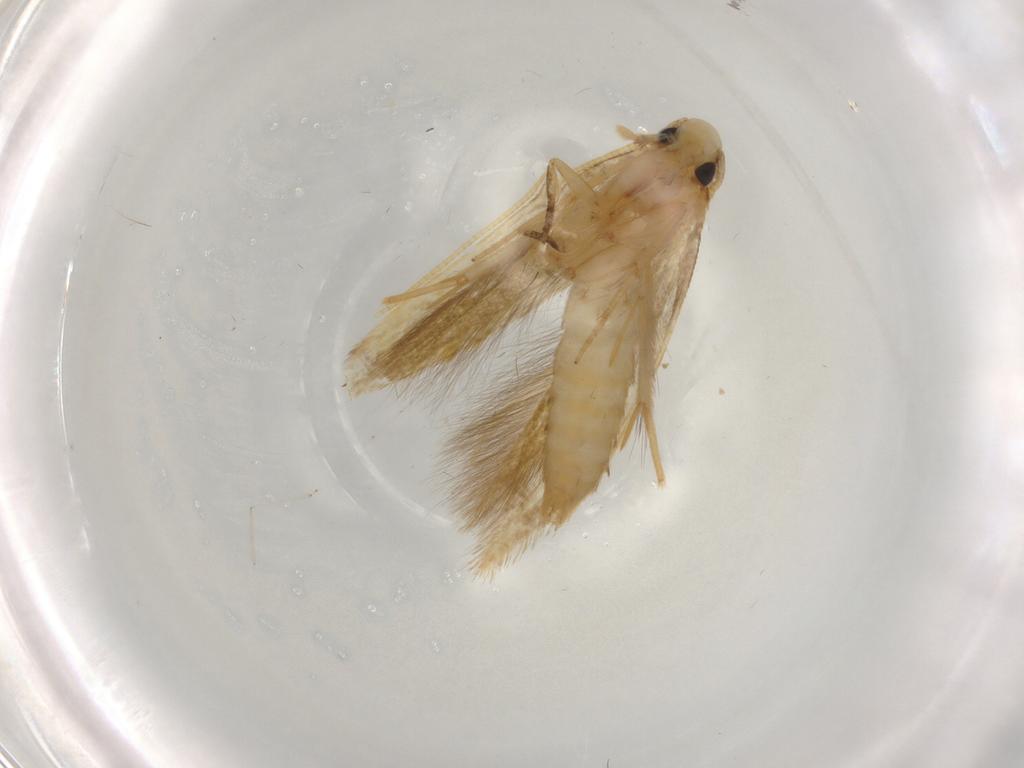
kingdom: Animalia
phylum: Arthropoda
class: Insecta
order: Lepidoptera
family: Tineidae
